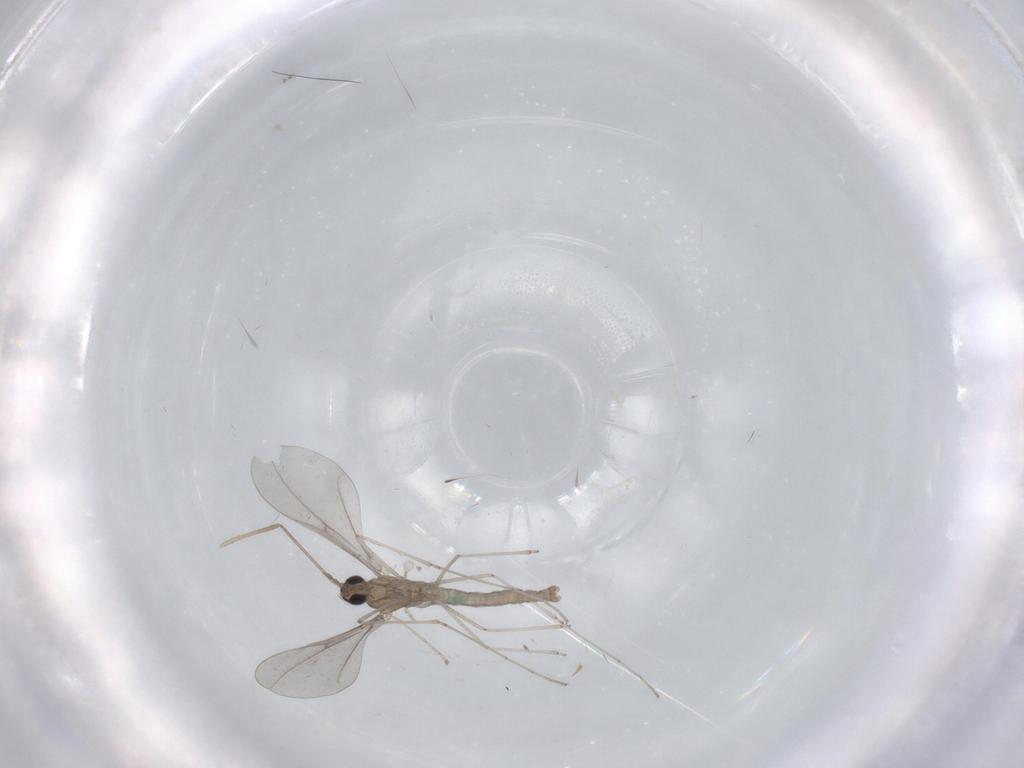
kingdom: Animalia
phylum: Arthropoda
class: Insecta
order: Diptera
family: Cecidomyiidae
